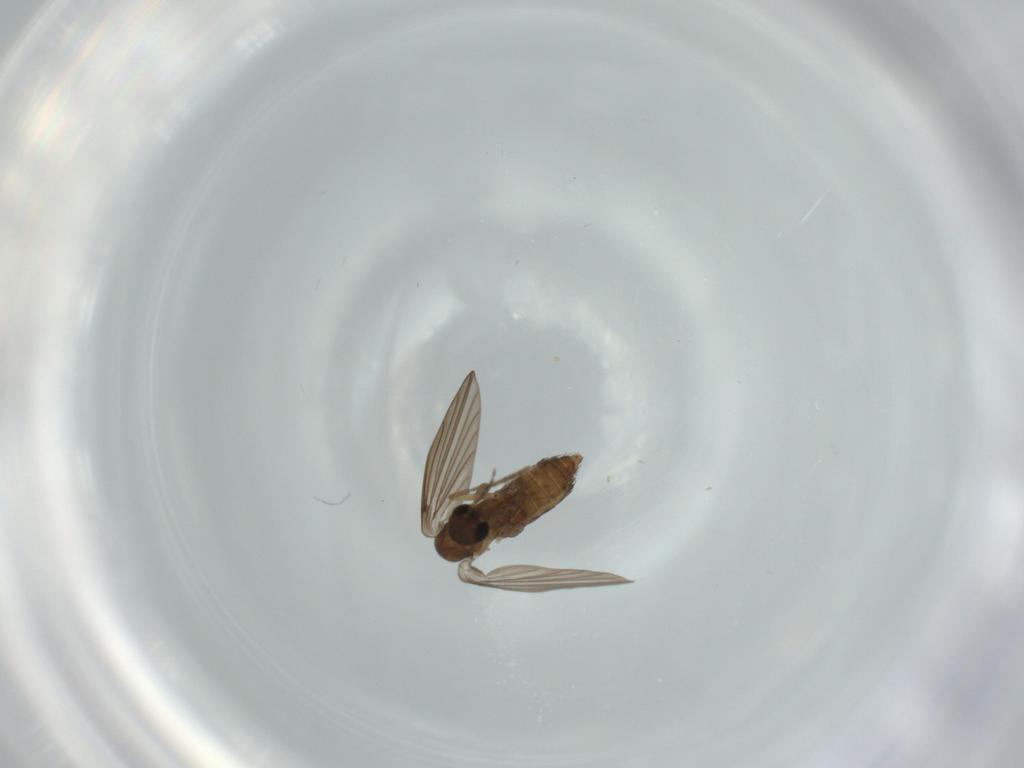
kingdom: Animalia
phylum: Arthropoda
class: Insecta
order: Diptera
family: Psychodidae
